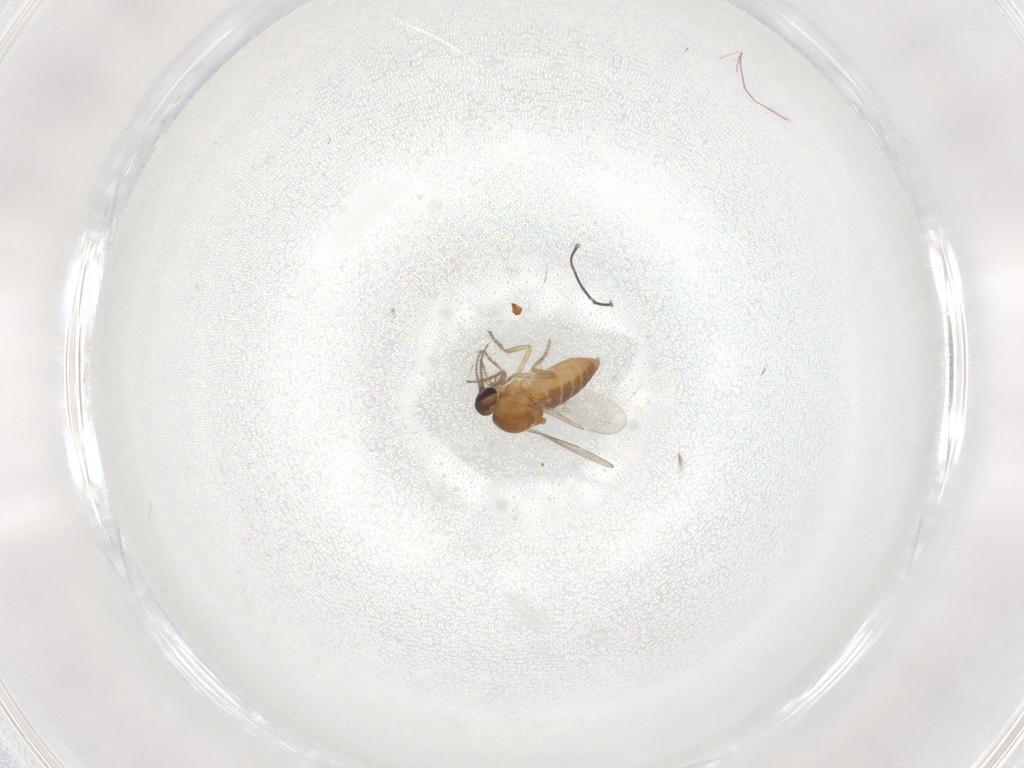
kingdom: Animalia
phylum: Arthropoda
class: Insecta
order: Diptera
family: Ceratopogonidae
